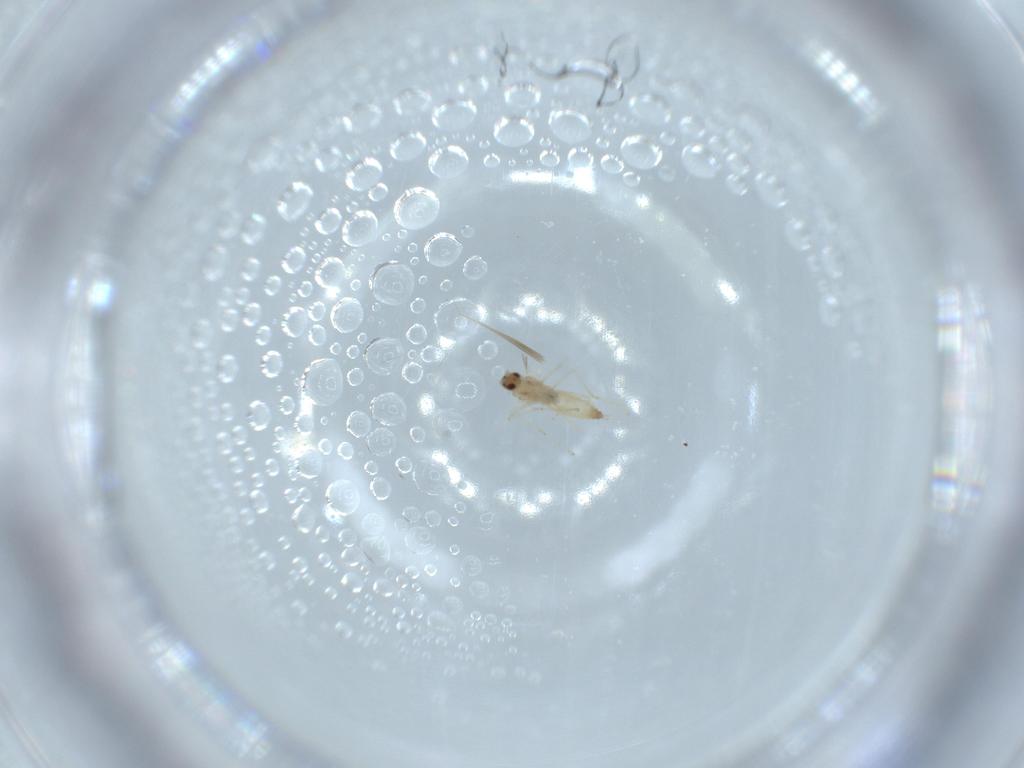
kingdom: Animalia
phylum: Arthropoda
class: Insecta
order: Diptera
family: Cecidomyiidae
